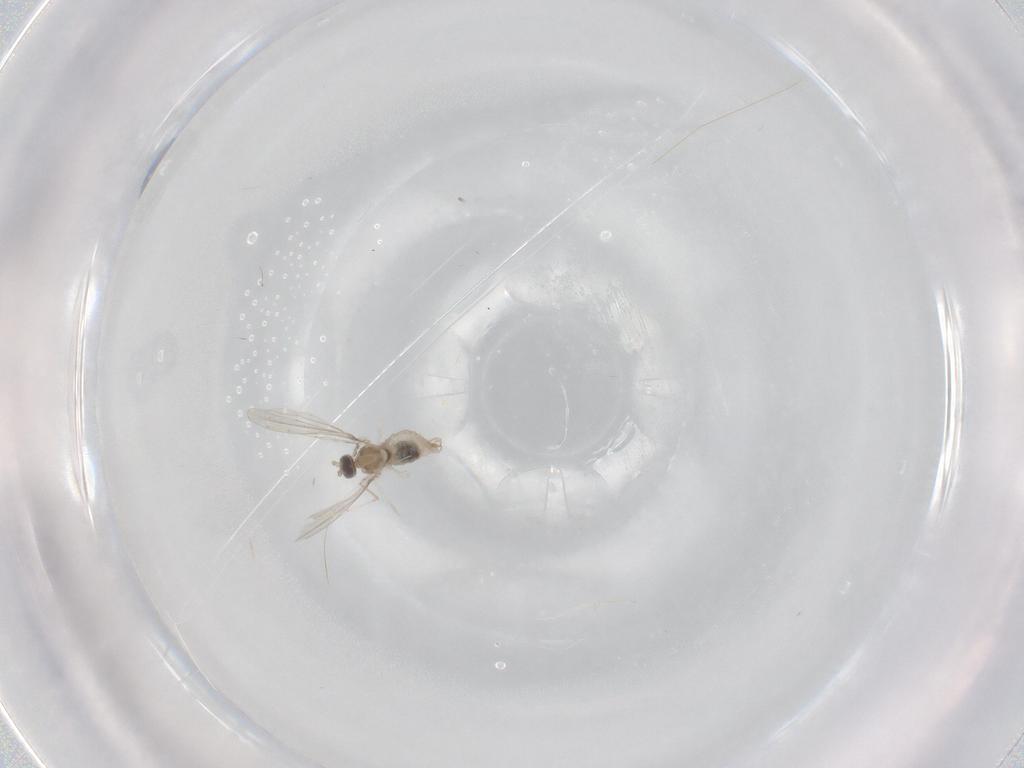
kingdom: Animalia
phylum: Arthropoda
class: Insecta
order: Diptera
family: Cecidomyiidae
